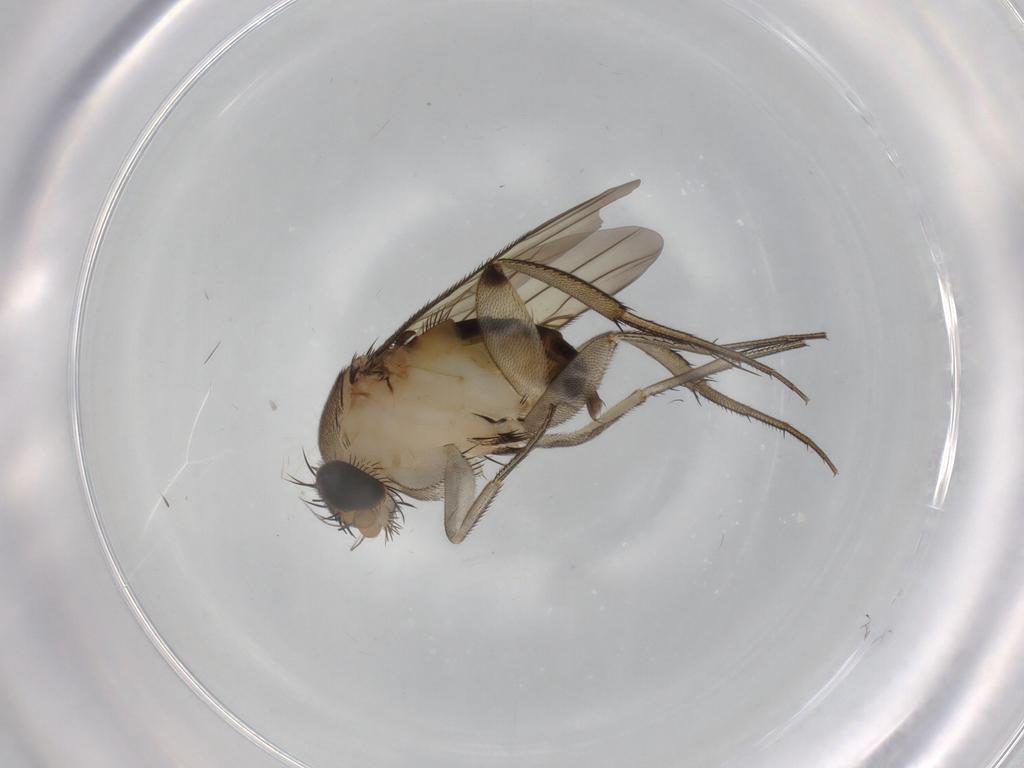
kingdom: Animalia
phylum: Arthropoda
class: Insecta
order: Diptera
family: Phoridae
